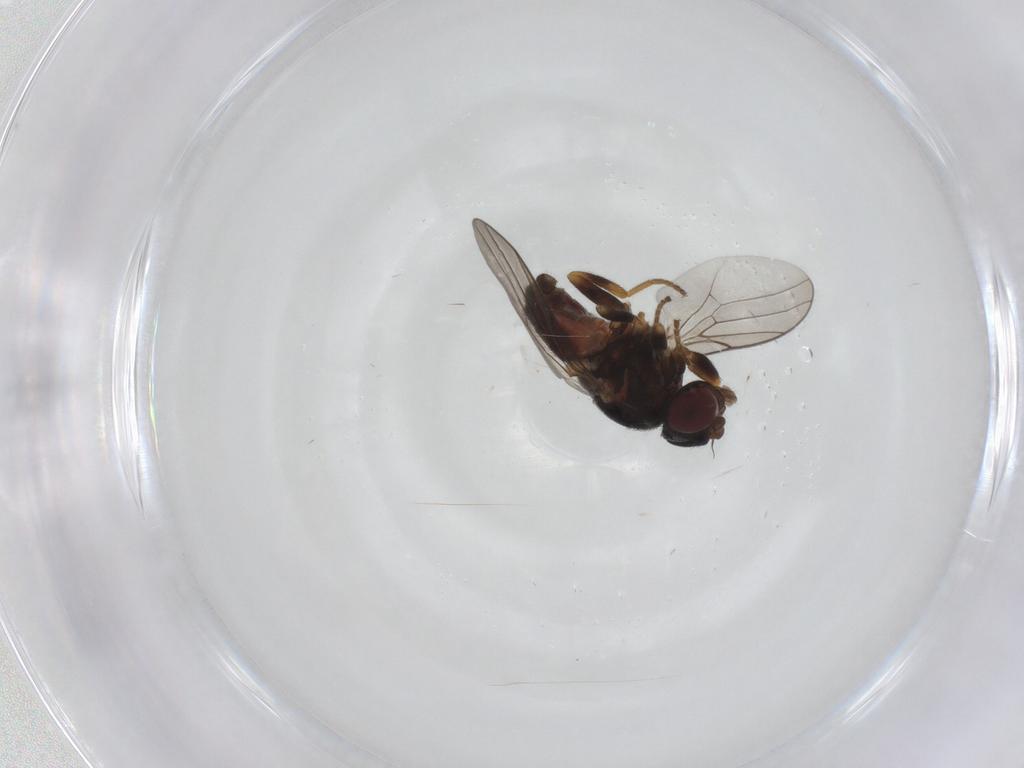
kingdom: Animalia
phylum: Arthropoda
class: Insecta
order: Diptera
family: Chloropidae
